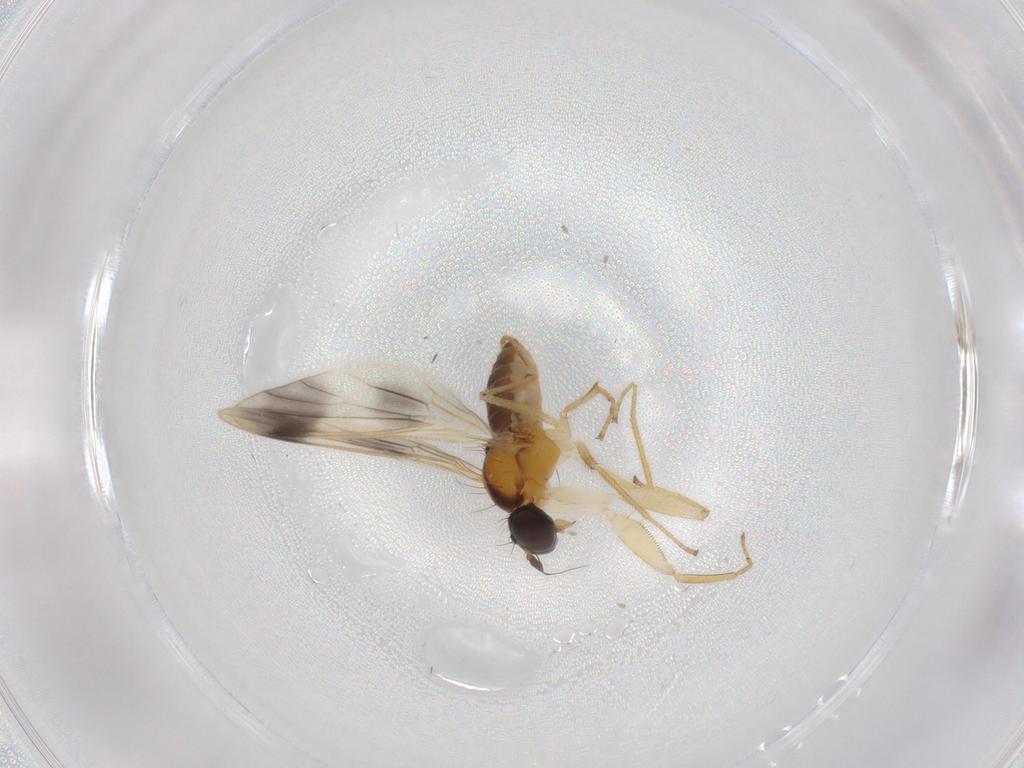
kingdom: Animalia
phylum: Arthropoda
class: Insecta
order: Diptera
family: Empididae
